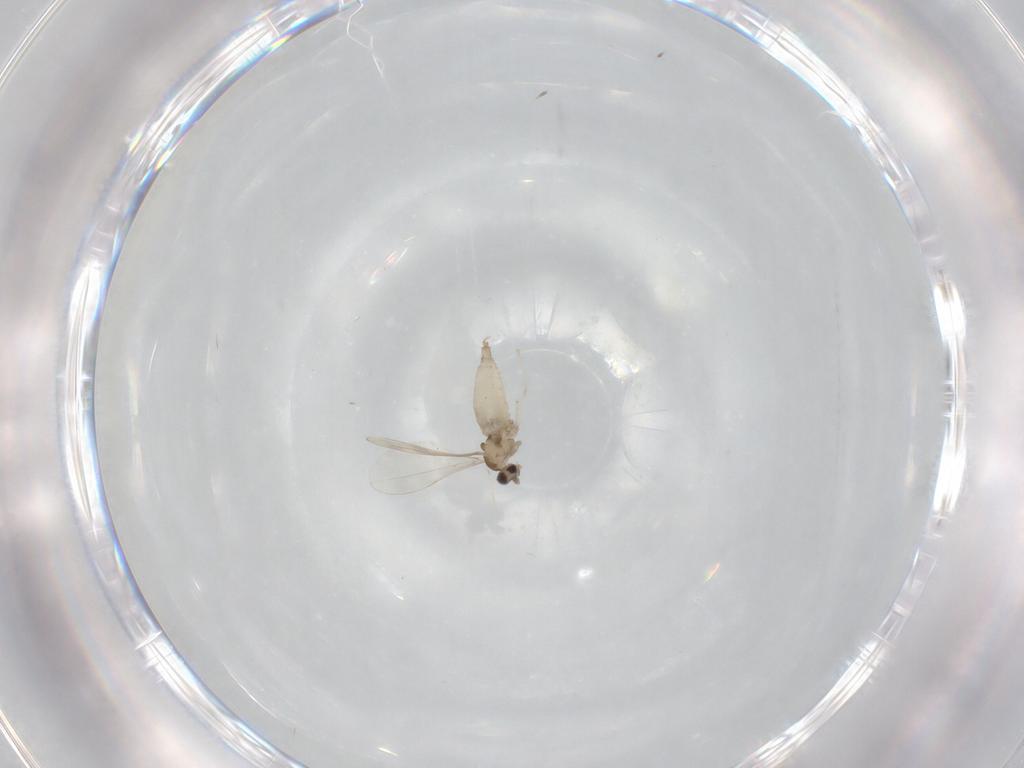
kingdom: Animalia
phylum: Arthropoda
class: Insecta
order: Diptera
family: Cecidomyiidae
